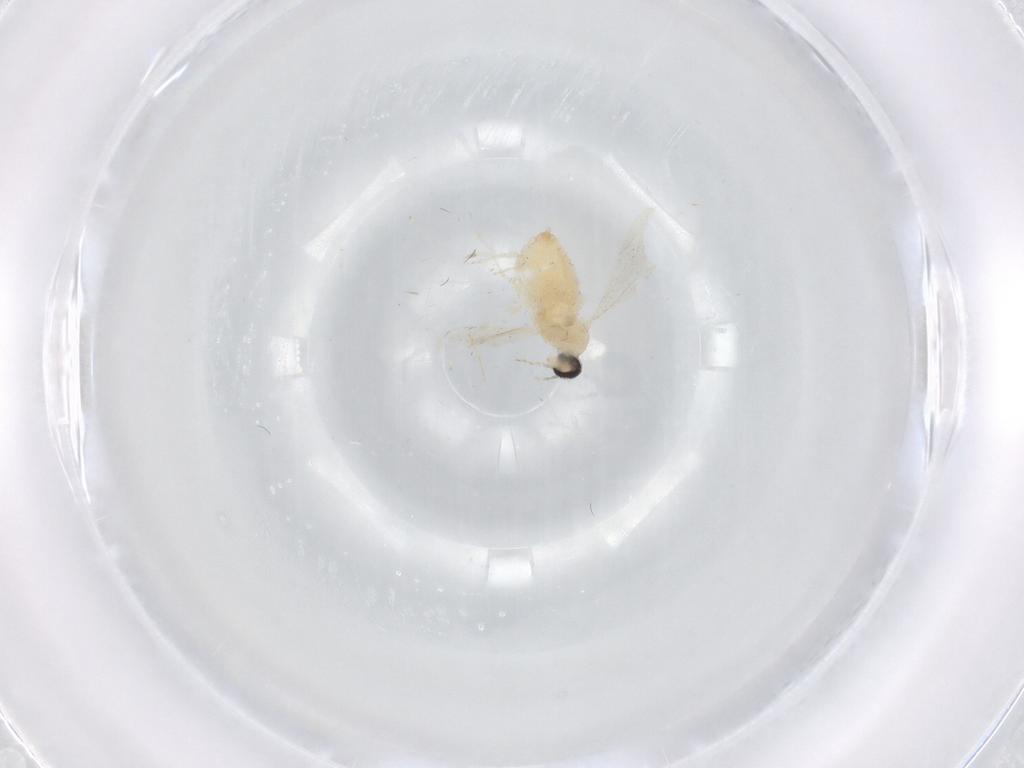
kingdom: Animalia
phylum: Arthropoda
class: Insecta
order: Diptera
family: Cecidomyiidae
